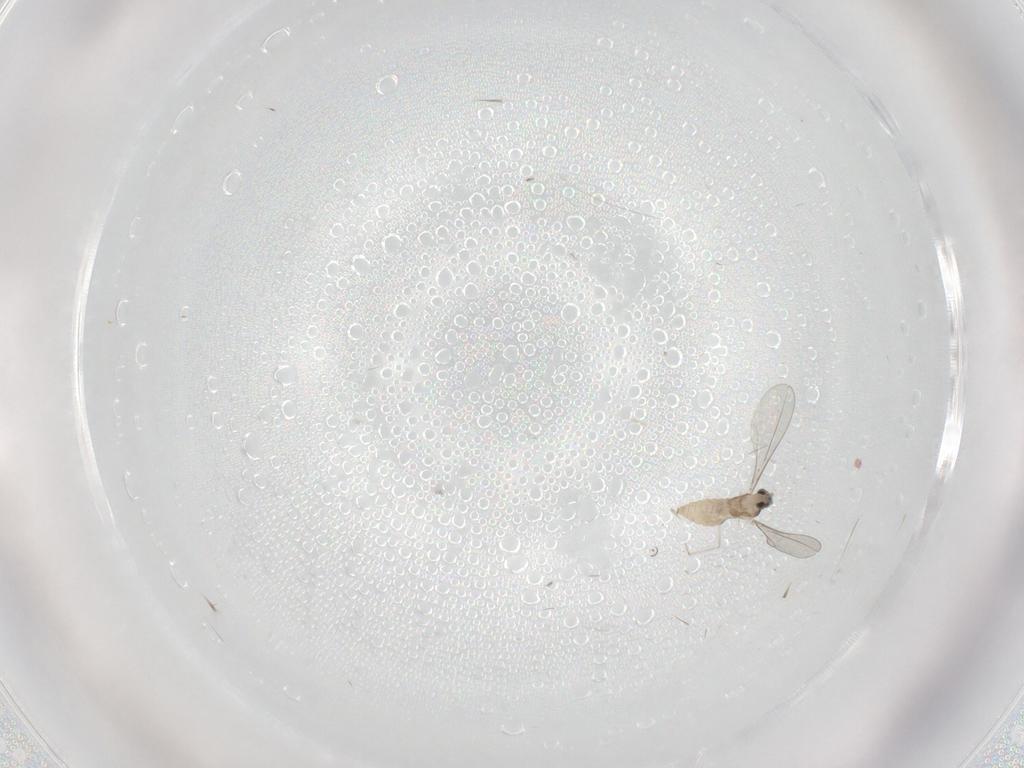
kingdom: Animalia
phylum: Arthropoda
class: Insecta
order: Diptera
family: Cecidomyiidae
